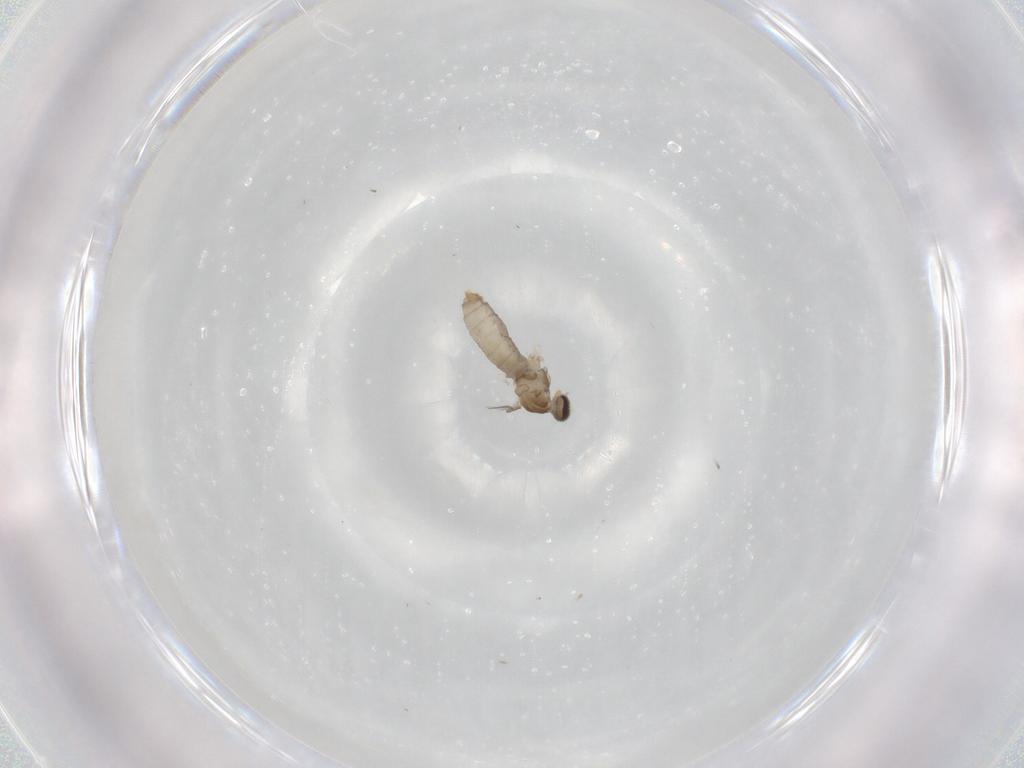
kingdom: Animalia
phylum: Arthropoda
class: Insecta
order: Diptera
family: Cecidomyiidae
